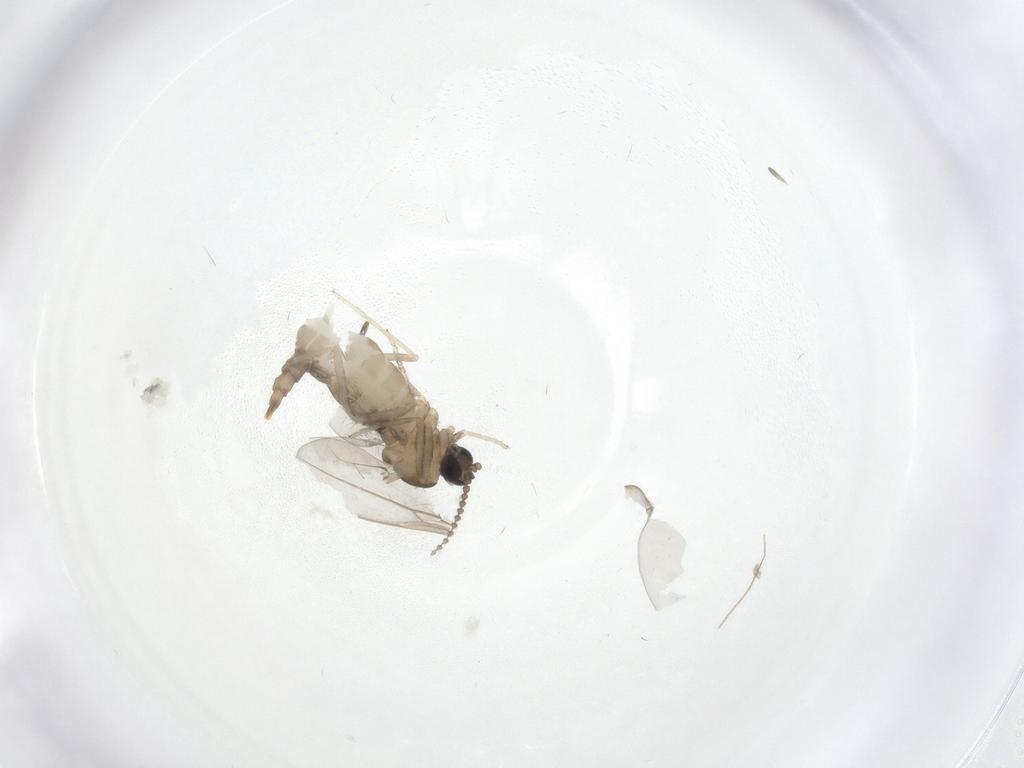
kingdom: Animalia
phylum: Arthropoda
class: Insecta
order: Diptera
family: Cecidomyiidae
